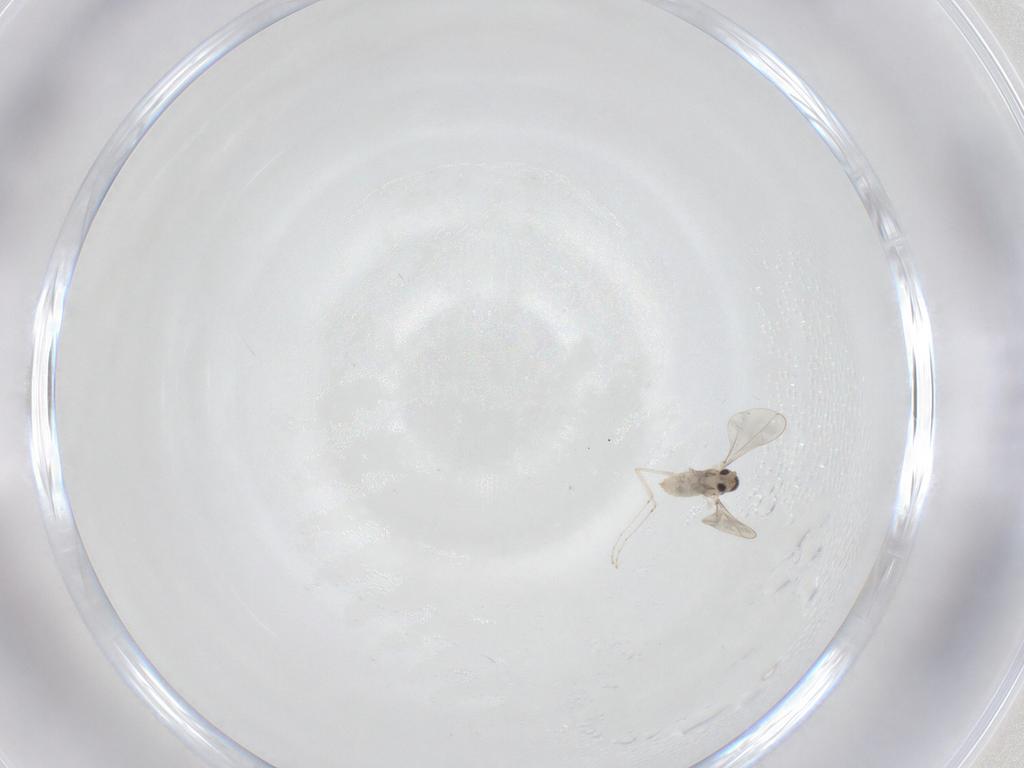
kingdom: Animalia
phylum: Arthropoda
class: Insecta
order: Diptera
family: Cecidomyiidae
